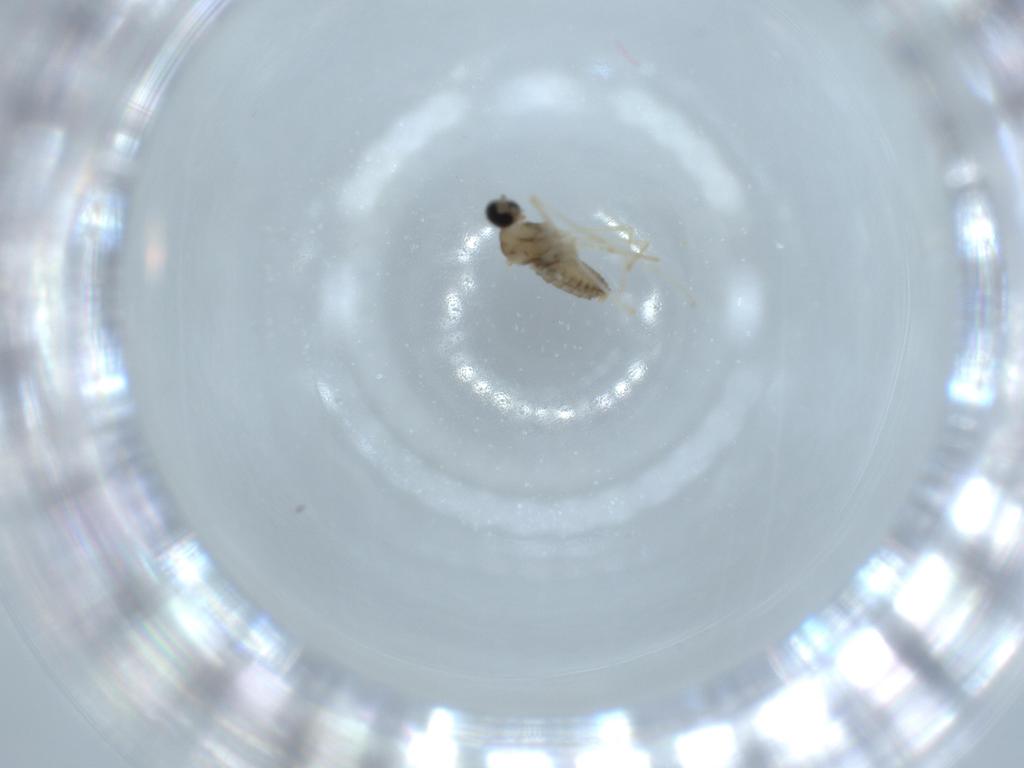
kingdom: Animalia
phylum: Arthropoda
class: Insecta
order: Diptera
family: Cecidomyiidae
